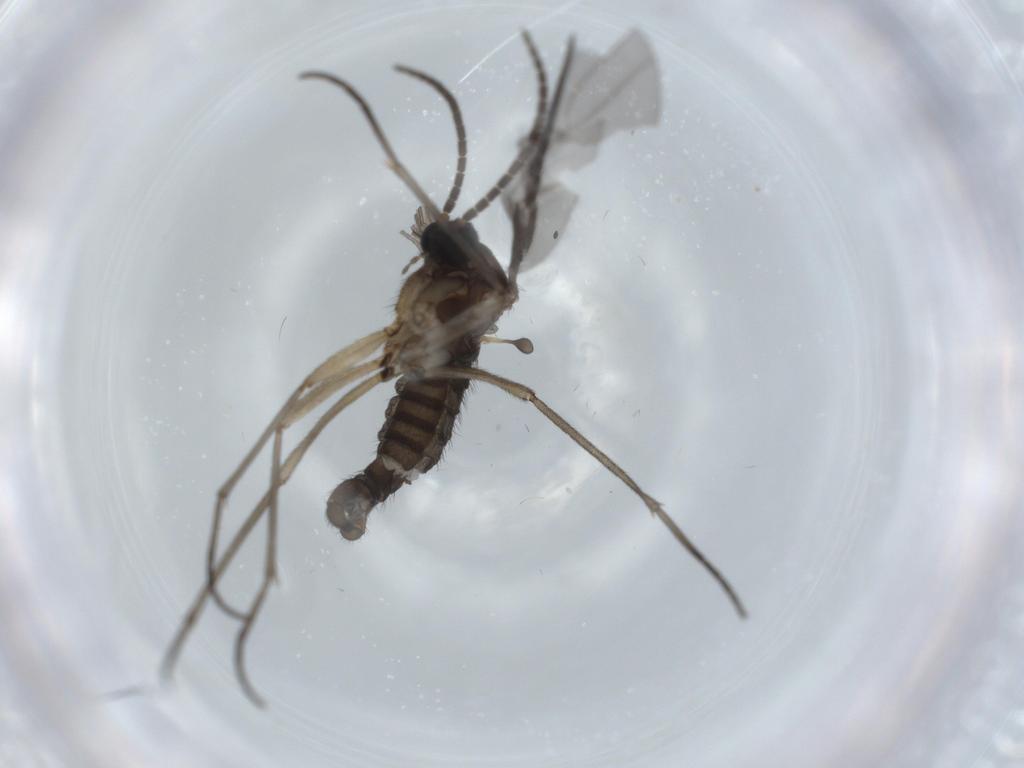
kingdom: Animalia
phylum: Arthropoda
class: Insecta
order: Diptera
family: Sciaridae
